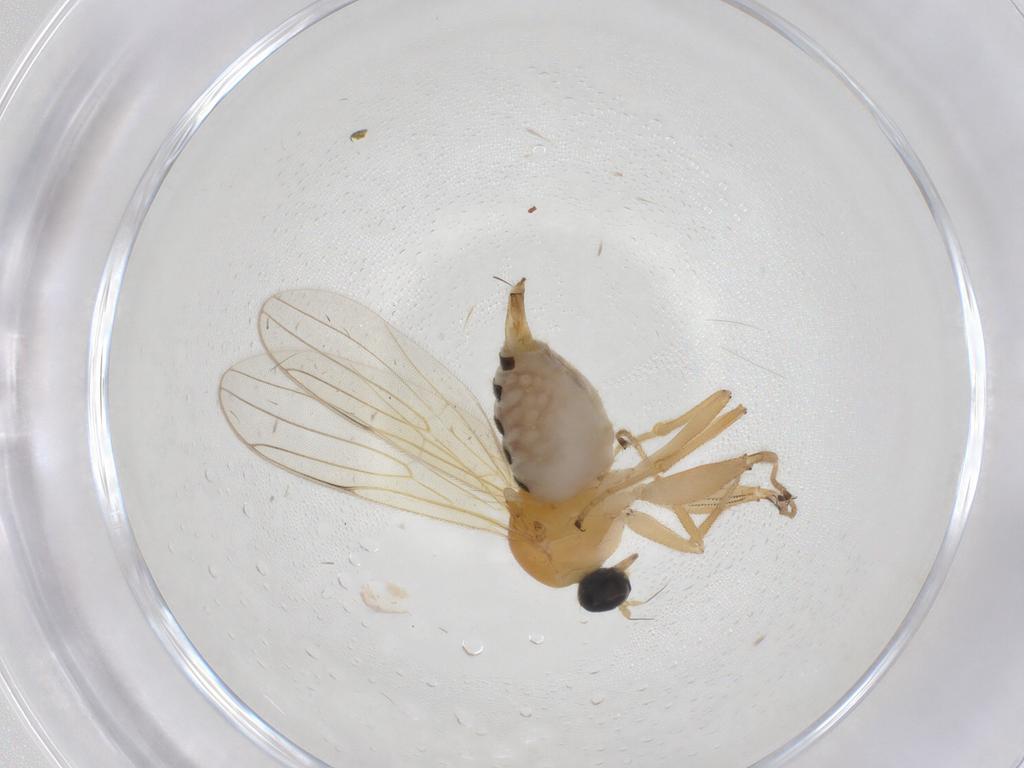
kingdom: Animalia
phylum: Arthropoda
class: Insecta
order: Diptera
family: Hybotidae
